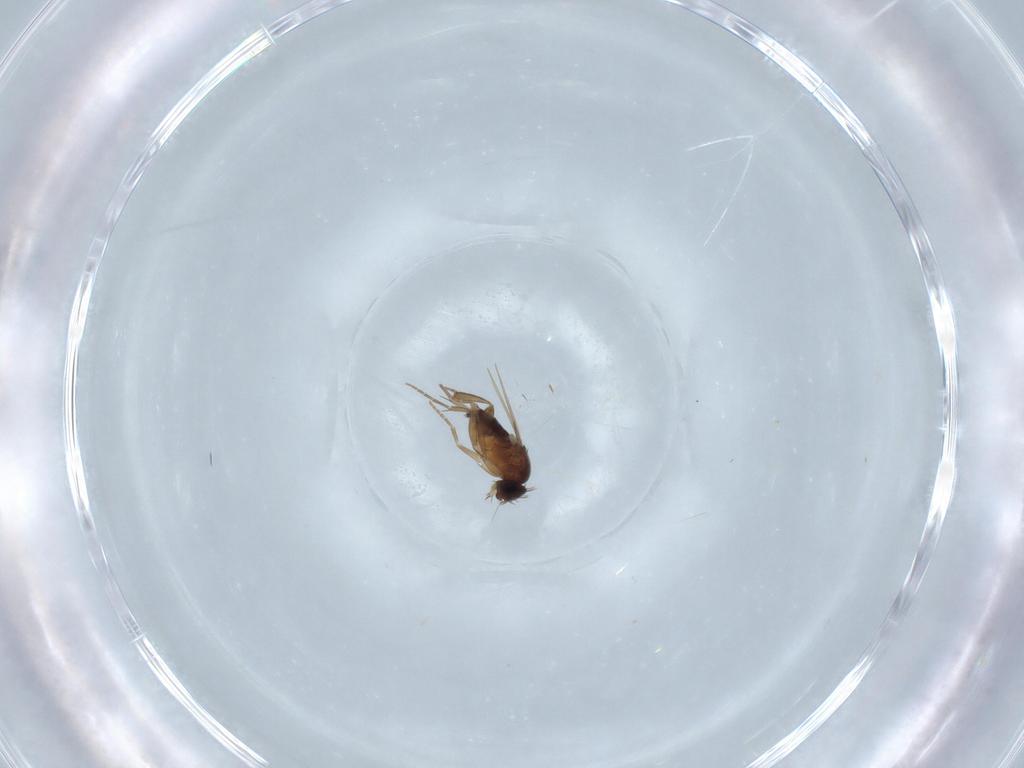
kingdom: Animalia
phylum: Arthropoda
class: Insecta
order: Diptera
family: Phoridae
